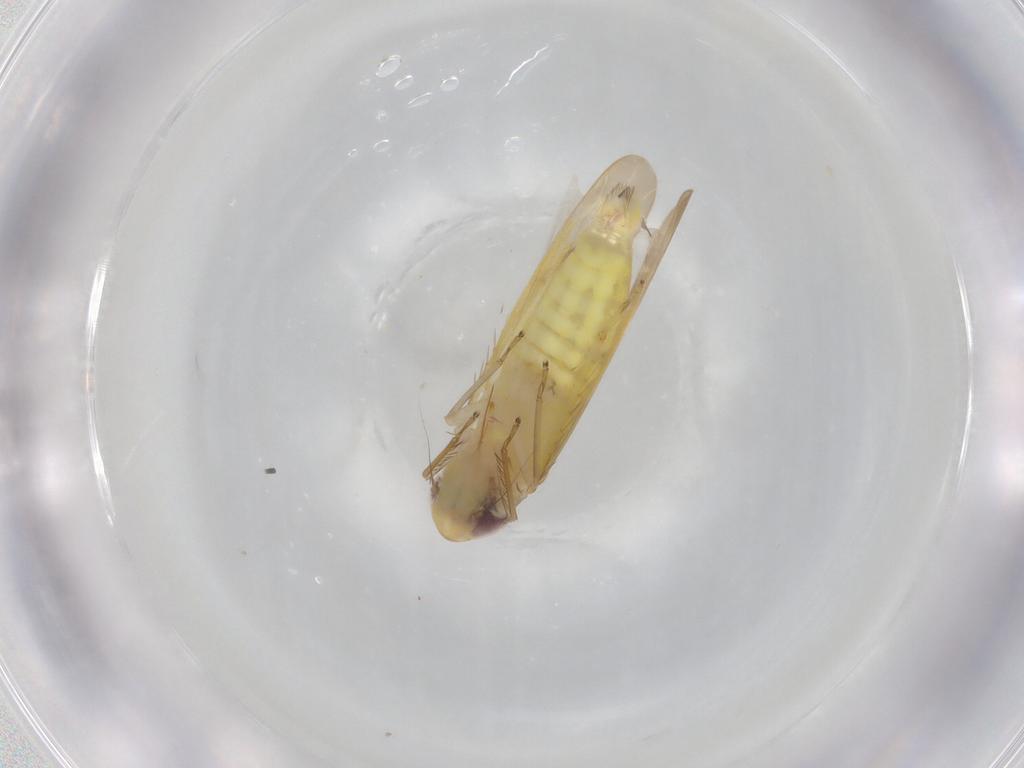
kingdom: Animalia
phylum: Arthropoda
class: Insecta
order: Hemiptera
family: Cicadellidae
